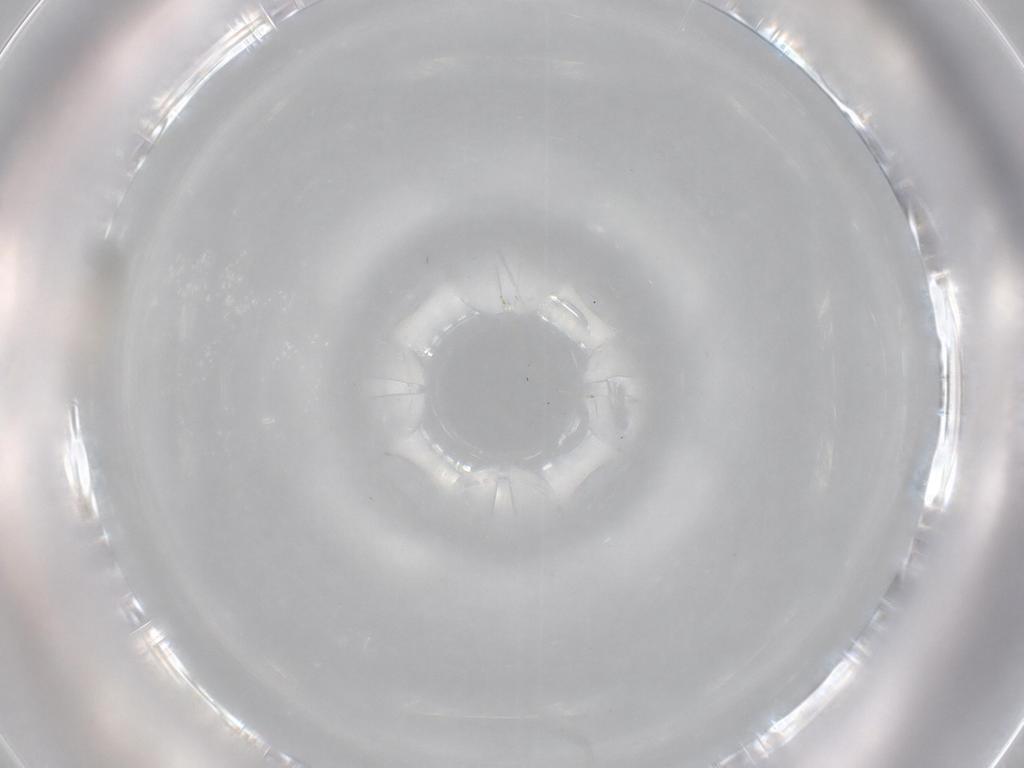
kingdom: Animalia
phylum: Arthropoda
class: Insecta
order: Diptera
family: Cecidomyiidae
